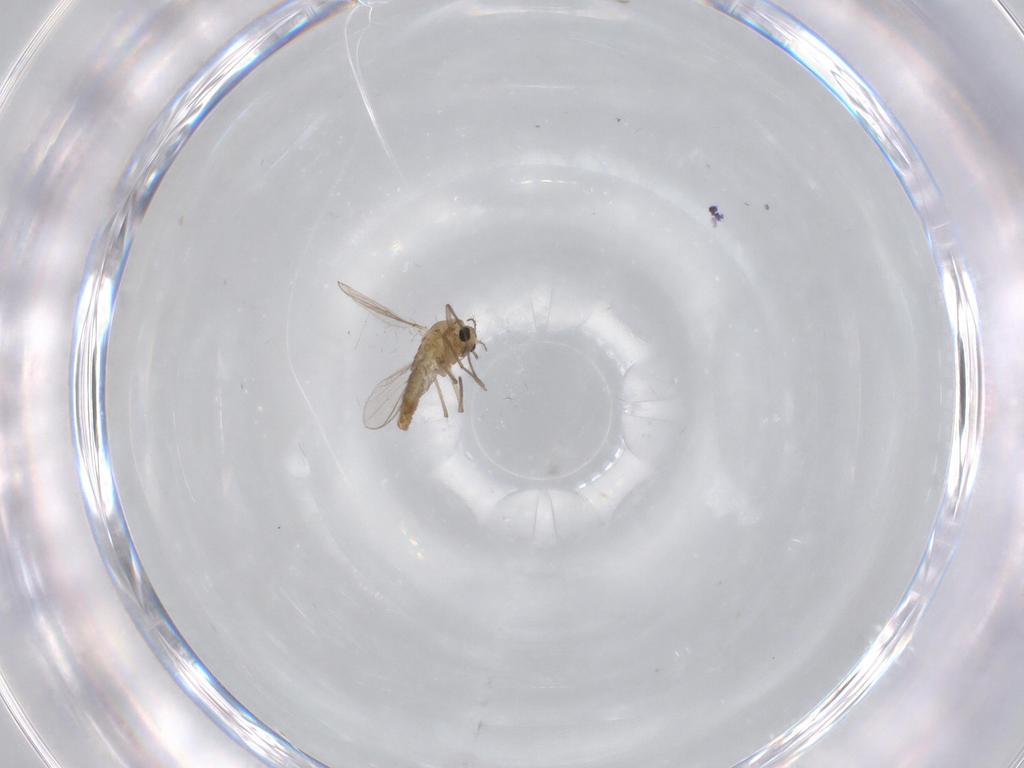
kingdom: Animalia
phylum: Arthropoda
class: Insecta
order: Diptera
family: Chironomidae
